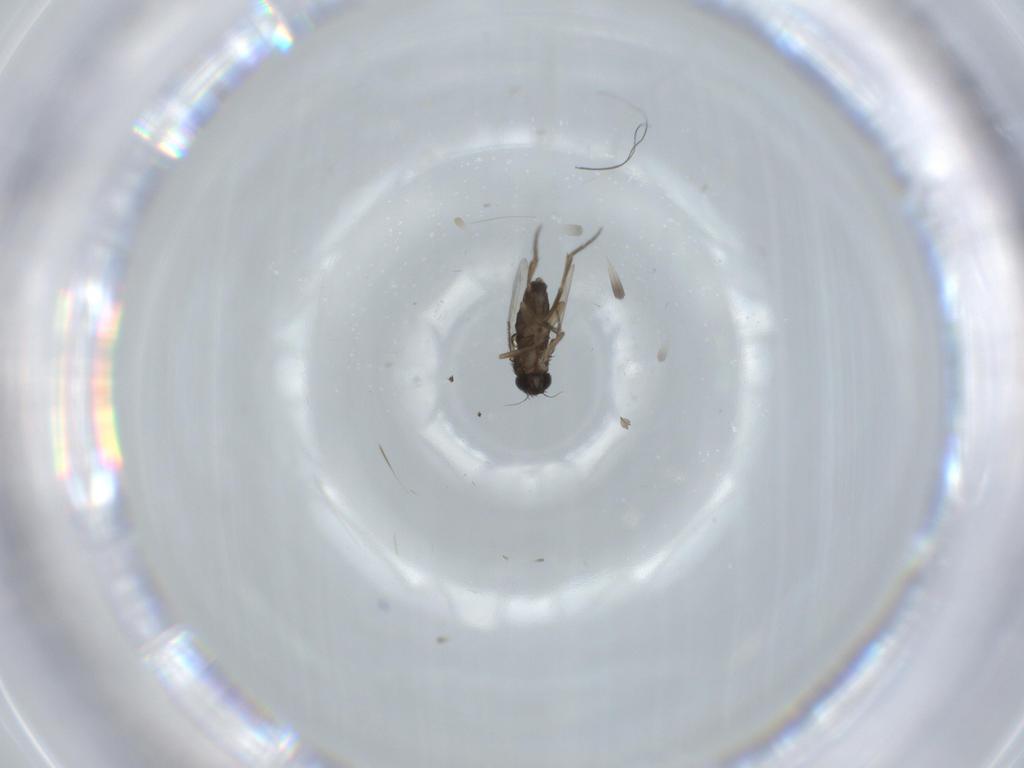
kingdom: Animalia
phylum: Arthropoda
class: Insecta
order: Diptera
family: Phoridae
